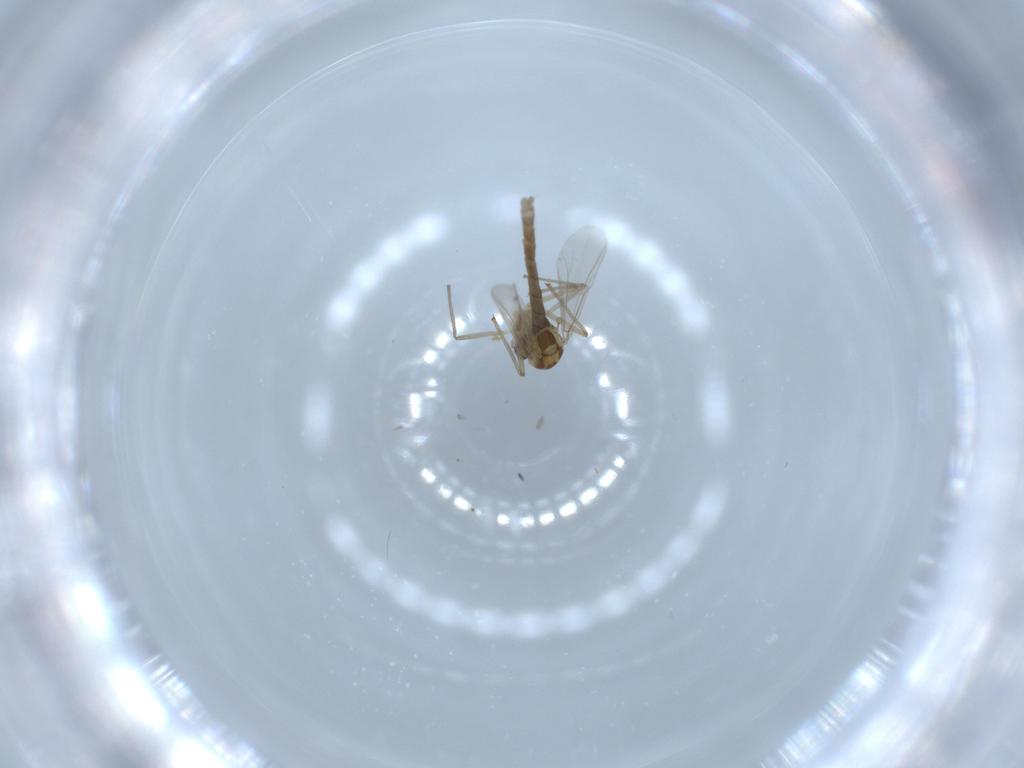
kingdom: Animalia
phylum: Arthropoda
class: Insecta
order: Diptera
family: Chironomidae
